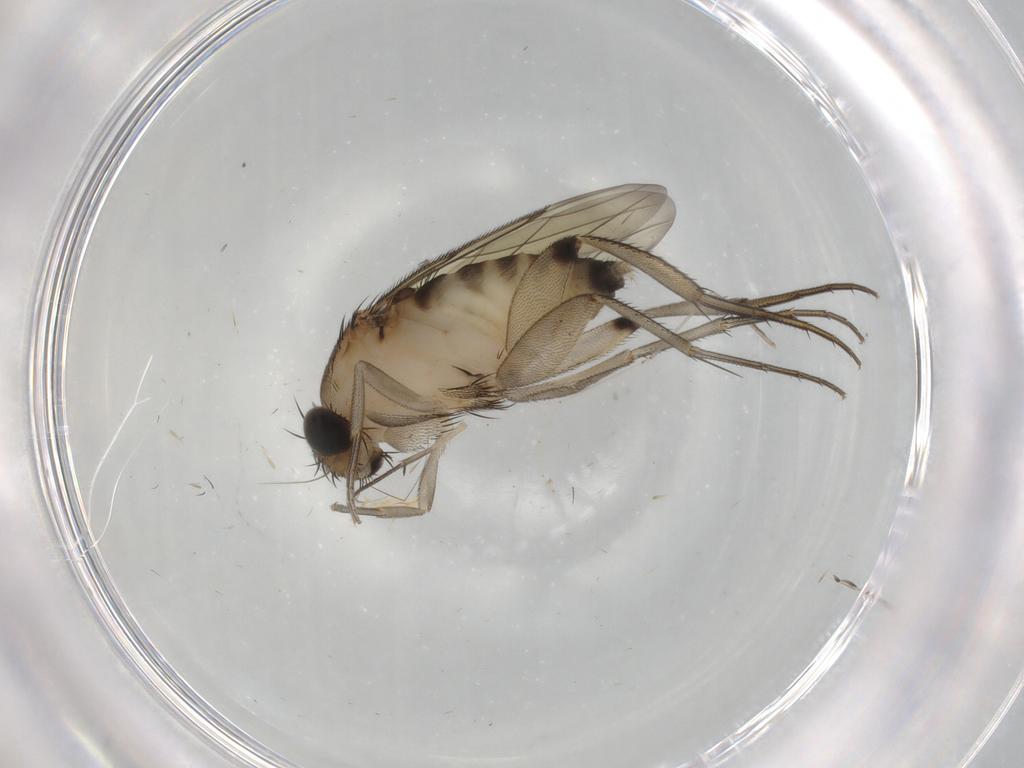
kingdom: Animalia
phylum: Arthropoda
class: Insecta
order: Diptera
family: Phoridae
